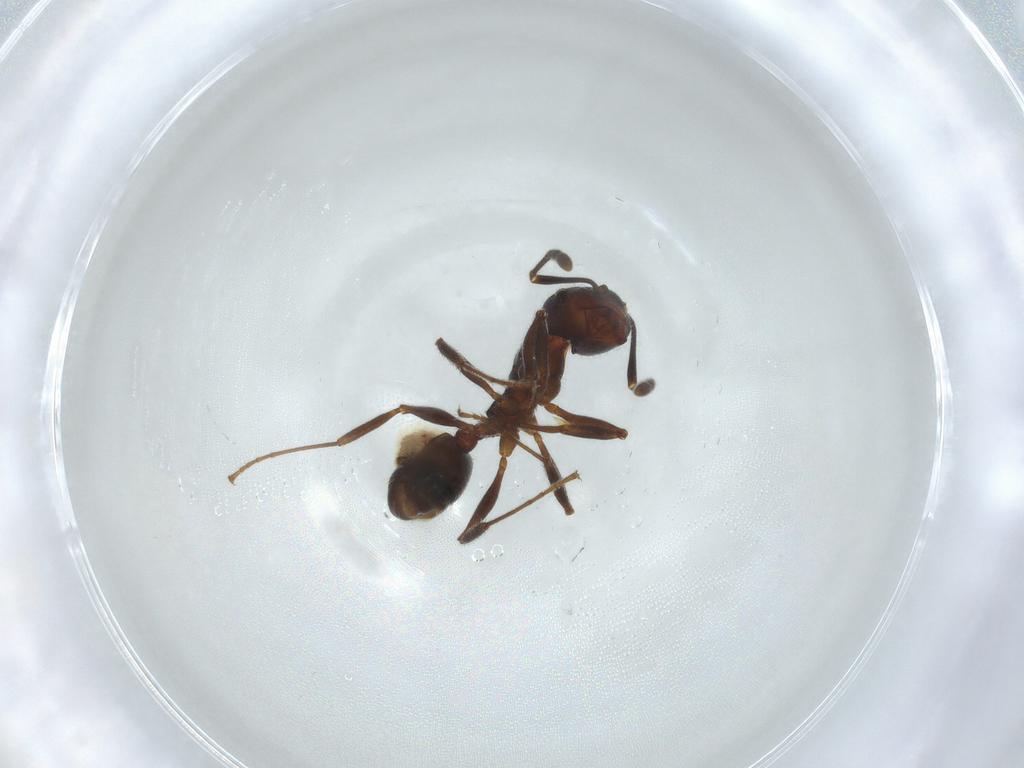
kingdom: Animalia
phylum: Arthropoda
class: Insecta
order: Hymenoptera
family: Formicidae
